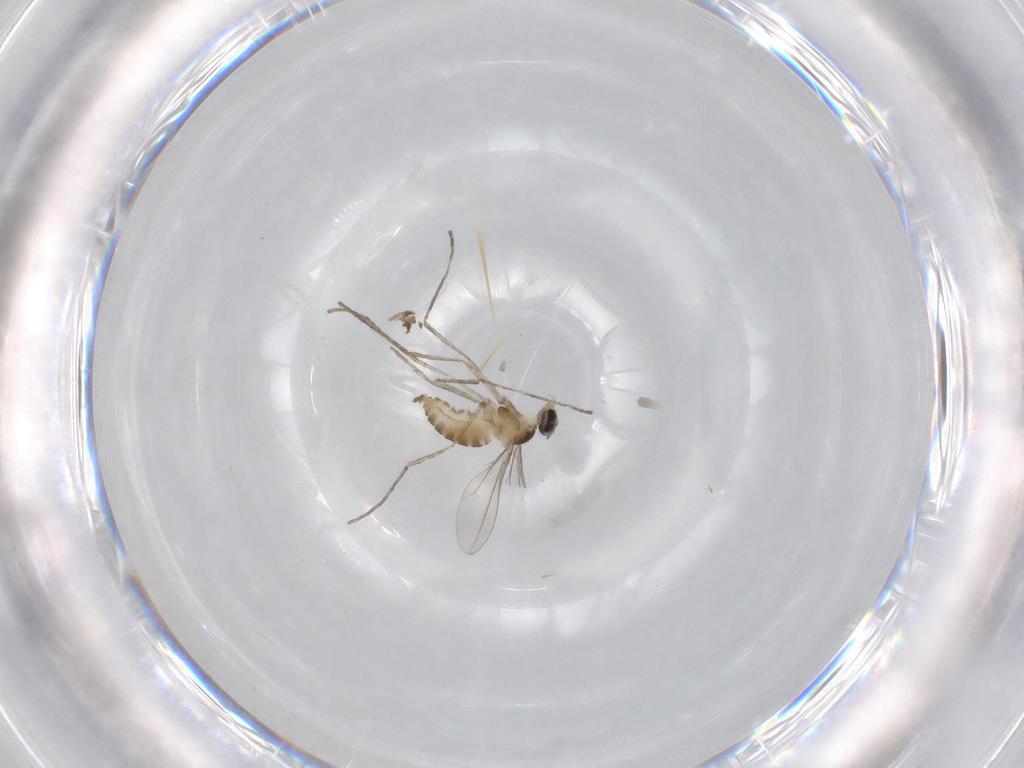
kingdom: Animalia
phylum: Arthropoda
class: Insecta
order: Diptera
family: Cecidomyiidae
